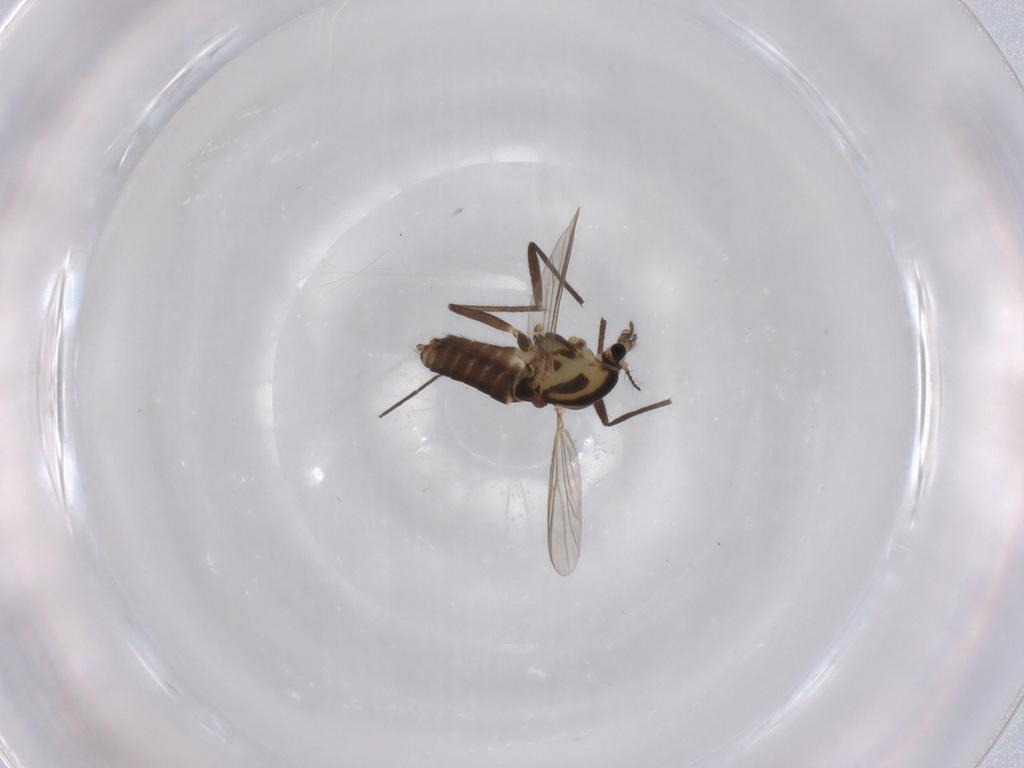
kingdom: Animalia
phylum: Arthropoda
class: Insecta
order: Diptera
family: Chironomidae
